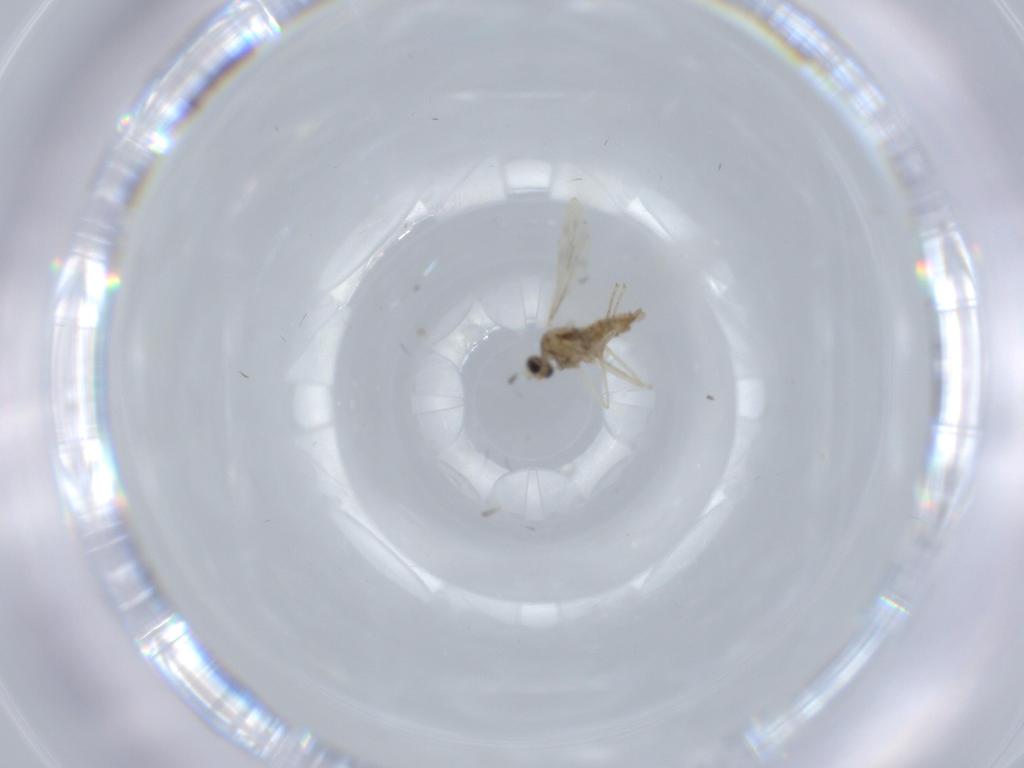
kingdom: Animalia
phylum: Arthropoda
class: Insecta
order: Diptera
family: Cecidomyiidae
